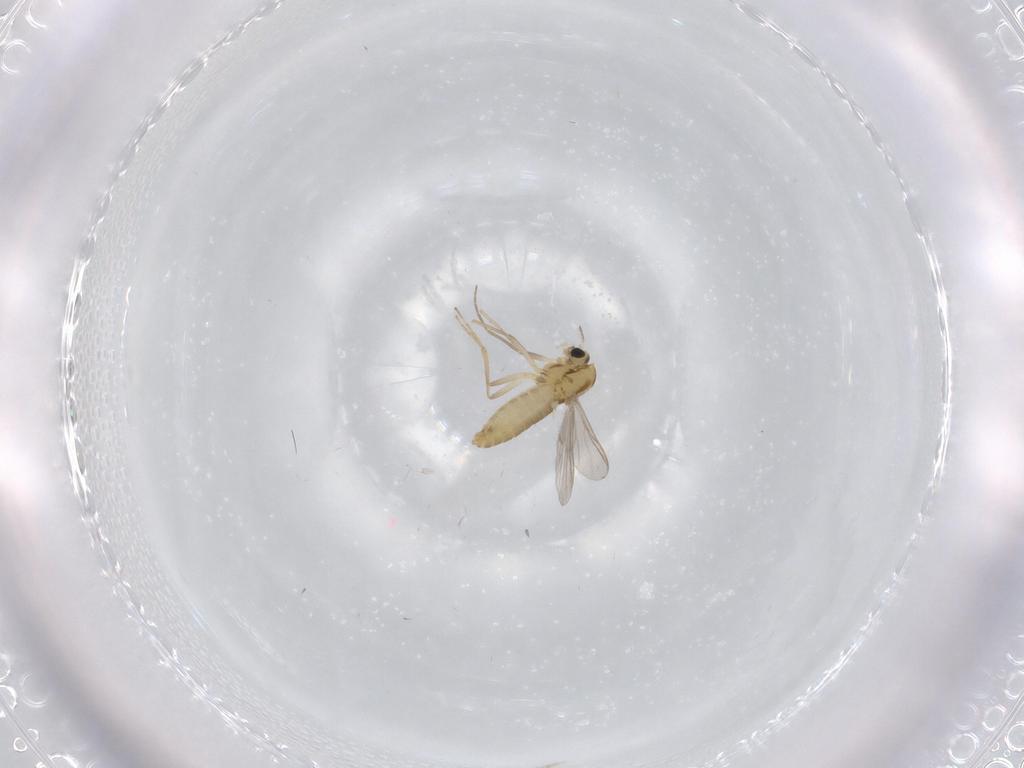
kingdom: Animalia
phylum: Arthropoda
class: Insecta
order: Diptera
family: Chironomidae
